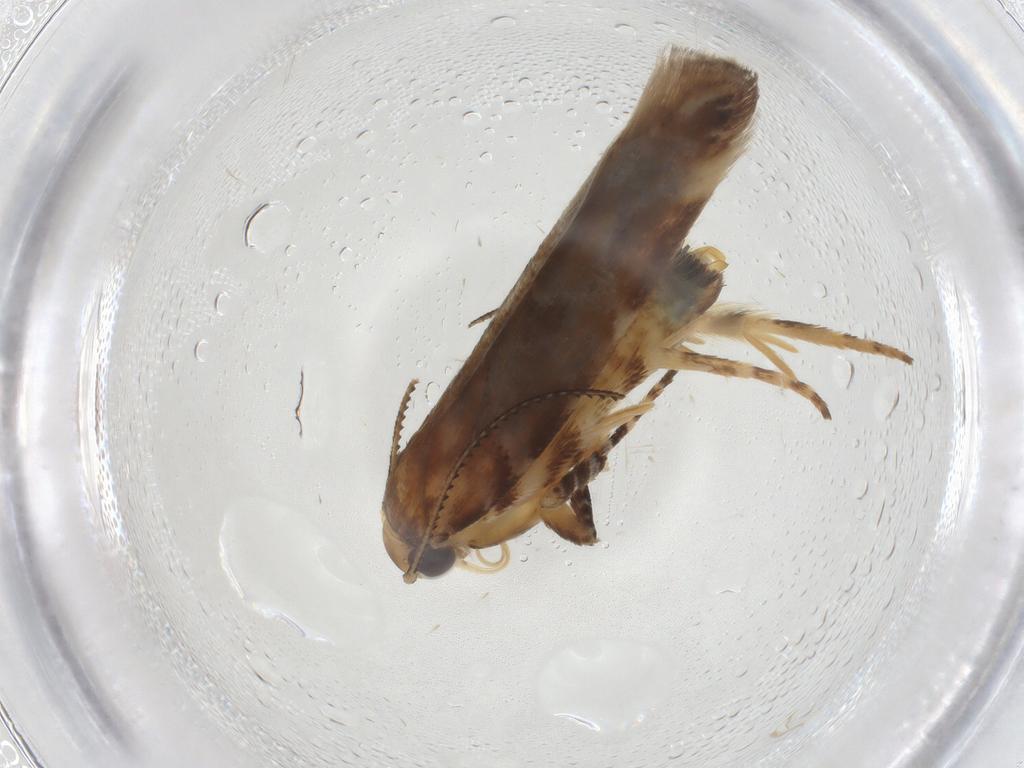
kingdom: Animalia
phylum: Arthropoda
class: Insecta
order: Lepidoptera
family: Gelechiidae
